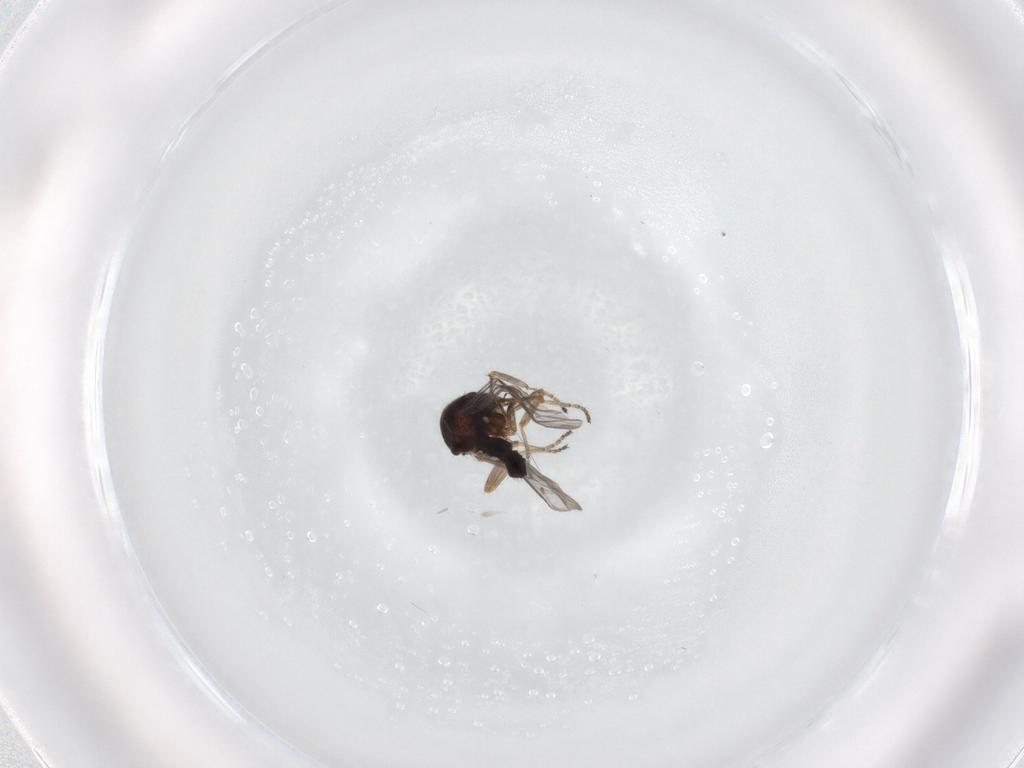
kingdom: Animalia
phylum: Arthropoda
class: Insecta
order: Diptera
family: Ceratopogonidae
